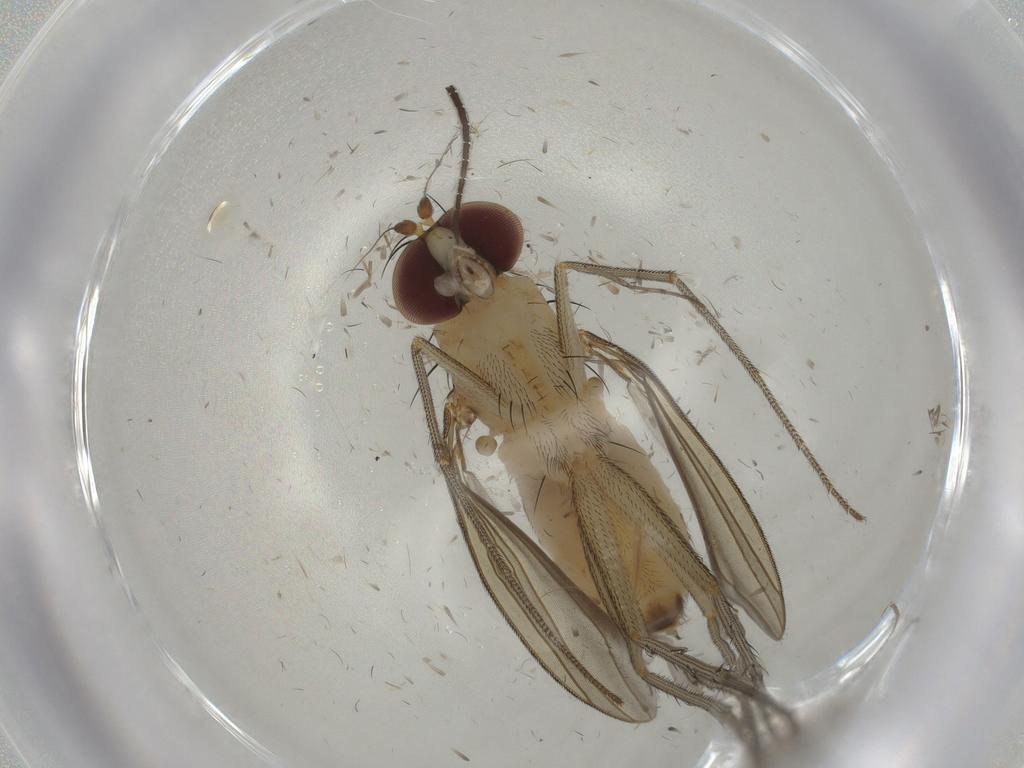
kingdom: Animalia
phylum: Arthropoda
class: Insecta
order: Diptera
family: Sciaridae
